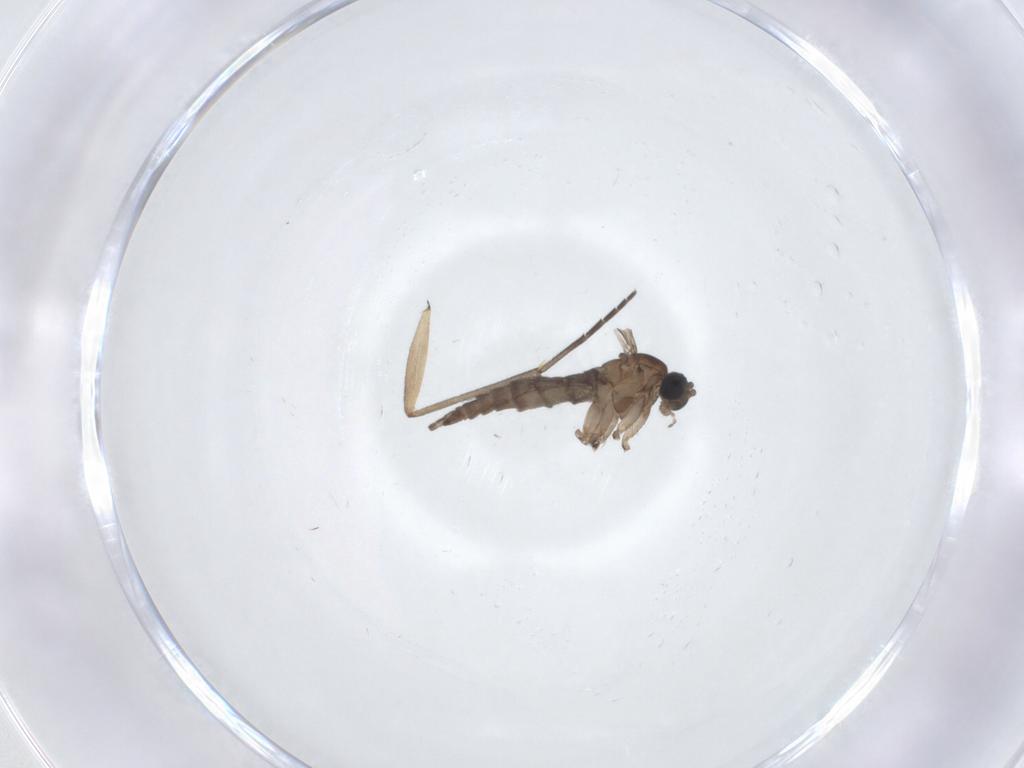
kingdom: Animalia
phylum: Arthropoda
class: Insecta
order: Diptera
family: Sciaridae
